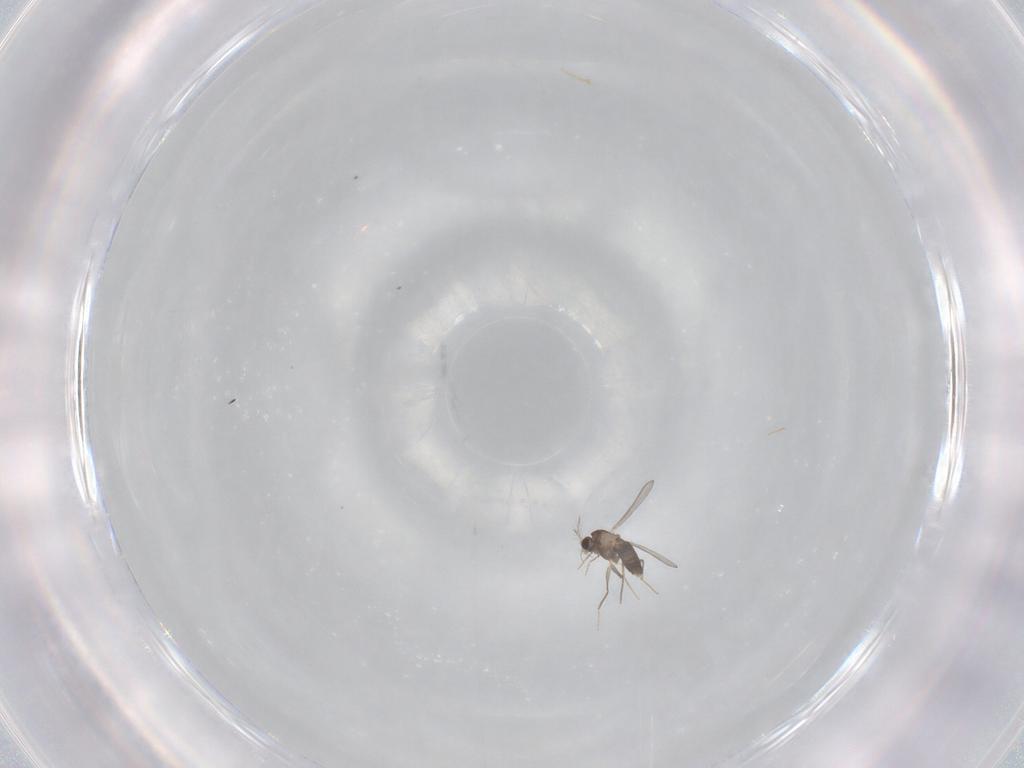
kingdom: Animalia
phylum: Arthropoda
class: Insecta
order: Diptera
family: Chironomidae
